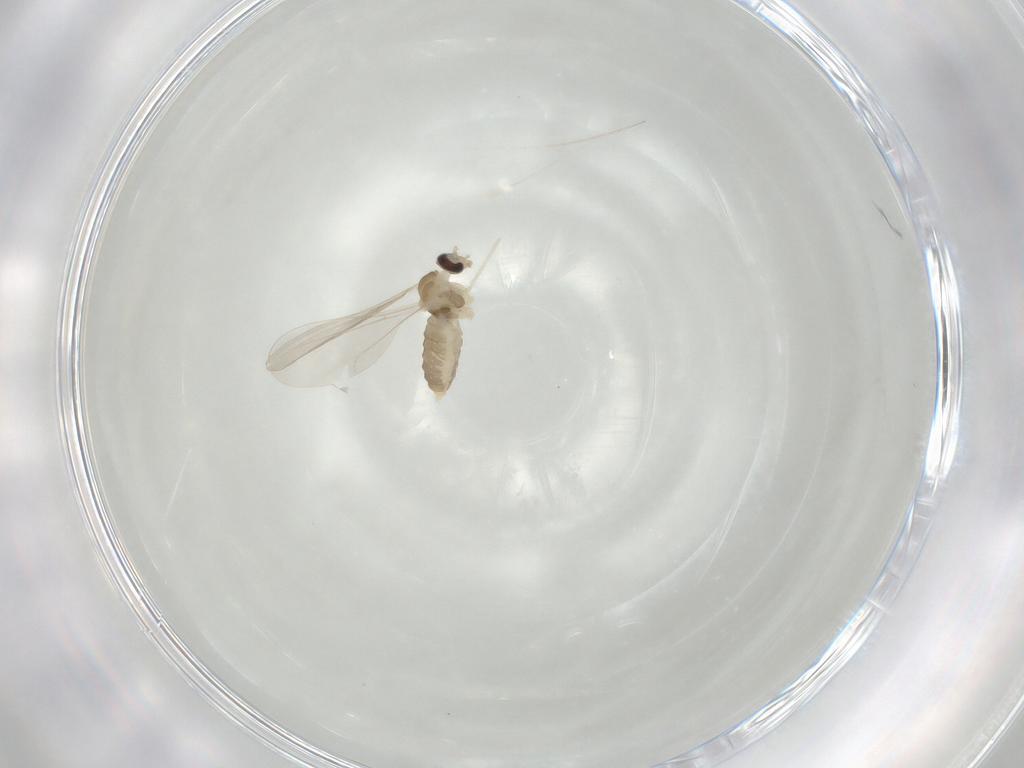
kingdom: Animalia
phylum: Arthropoda
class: Insecta
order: Diptera
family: Cecidomyiidae
